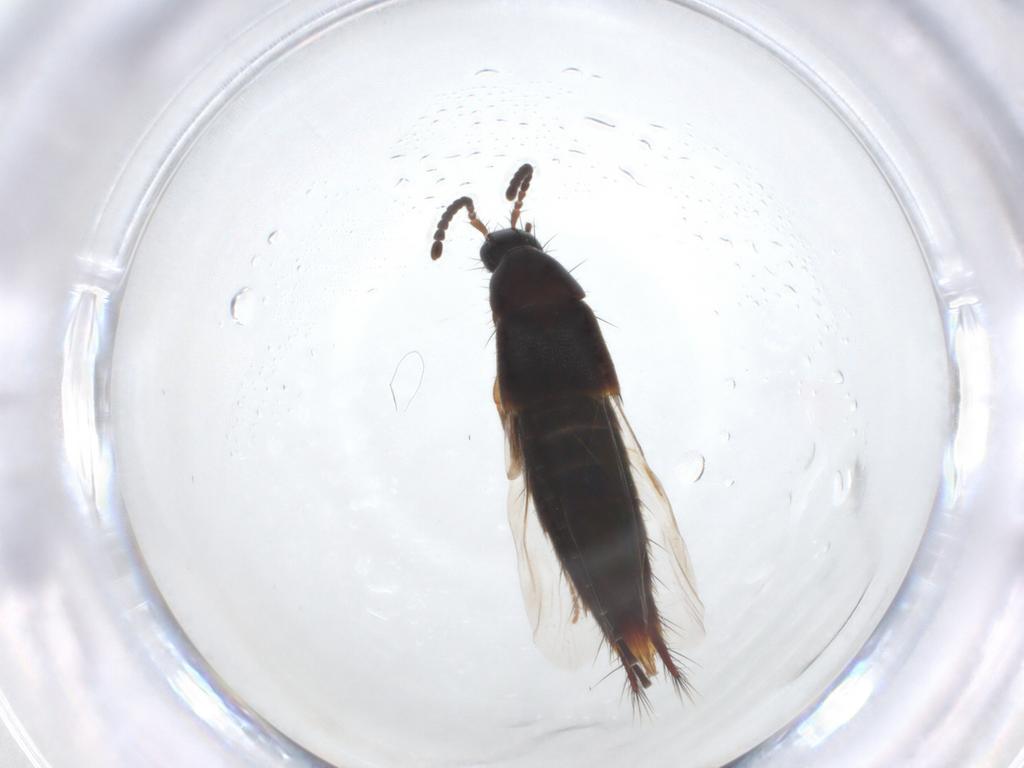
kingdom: Animalia
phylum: Arthropoda
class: Insecta
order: Coleoptera
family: Staphylinidae
